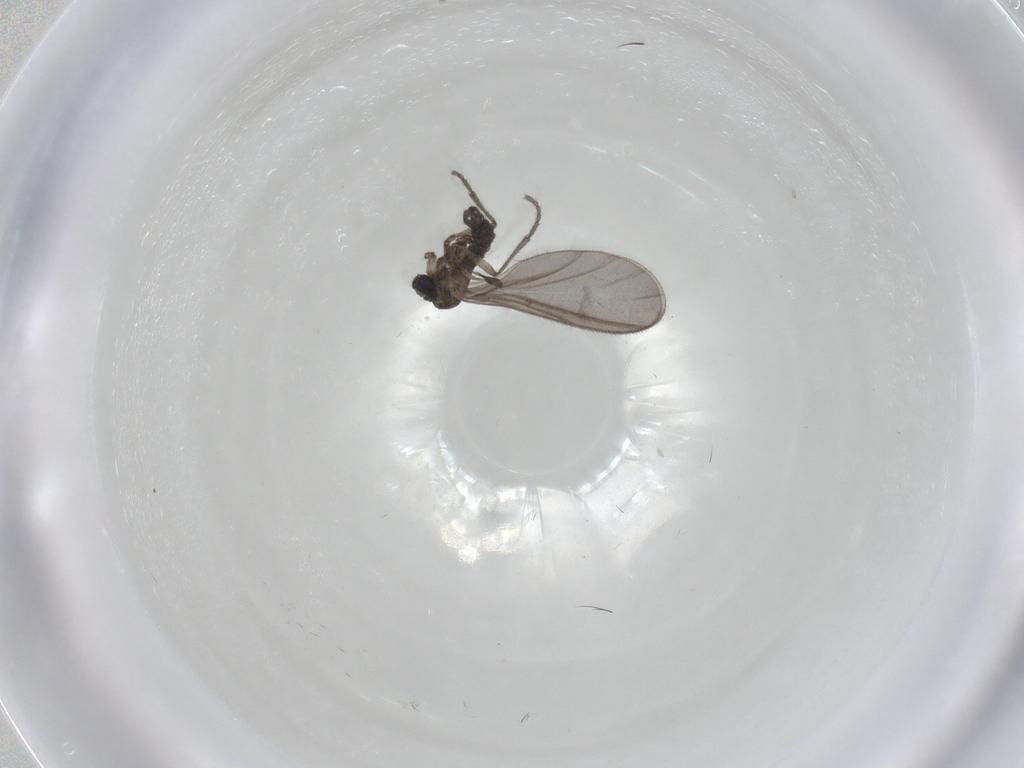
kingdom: Animalia
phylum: Arthropoda
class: Insecta
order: Diptera
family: Sciaridae
